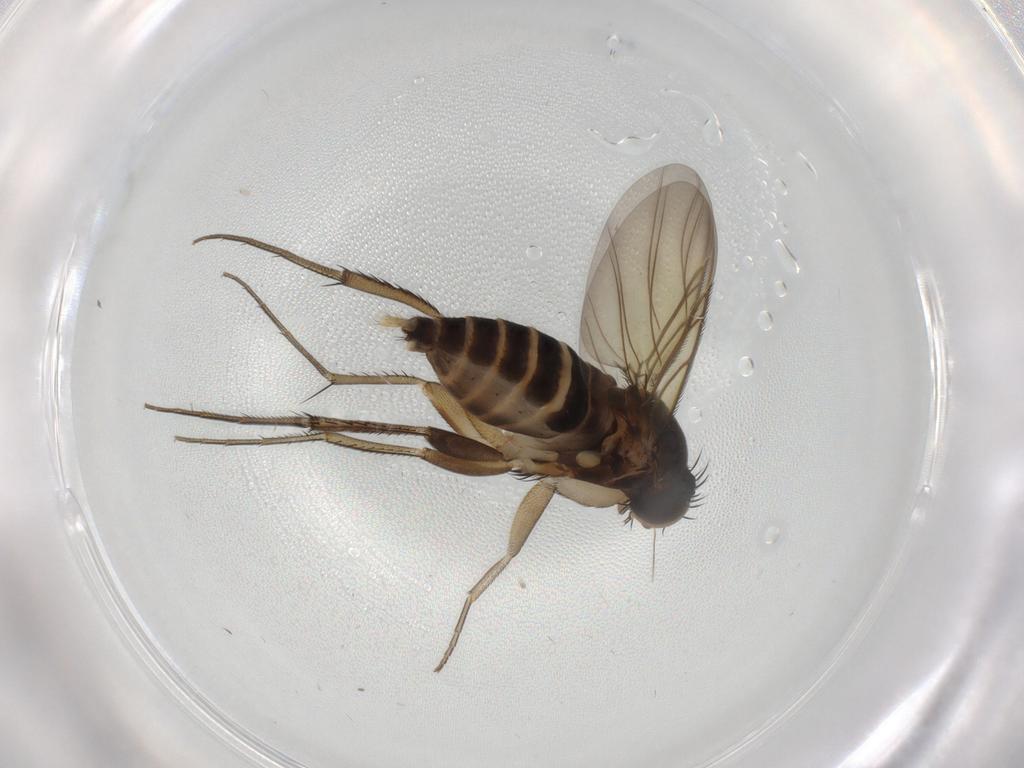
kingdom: Animalia
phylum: Arthropoda
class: Insecta
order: Diptera
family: Phoridae
